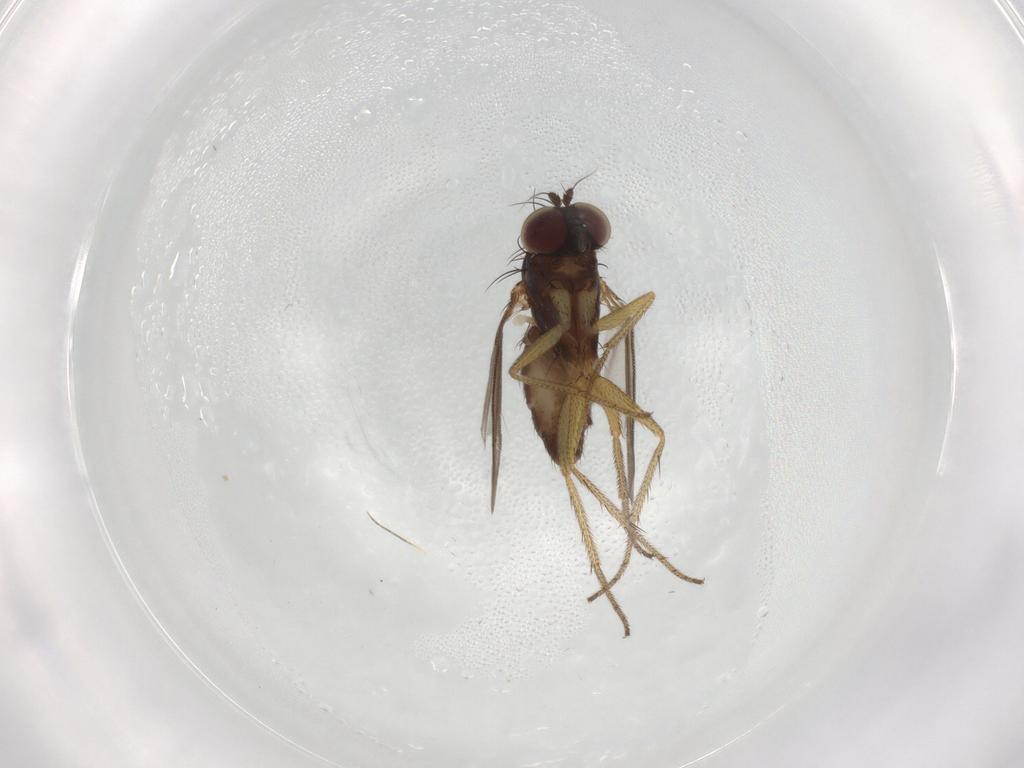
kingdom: Animalia
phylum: Arthropoda
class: Insecta
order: Diptera
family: Dolichopodidae
